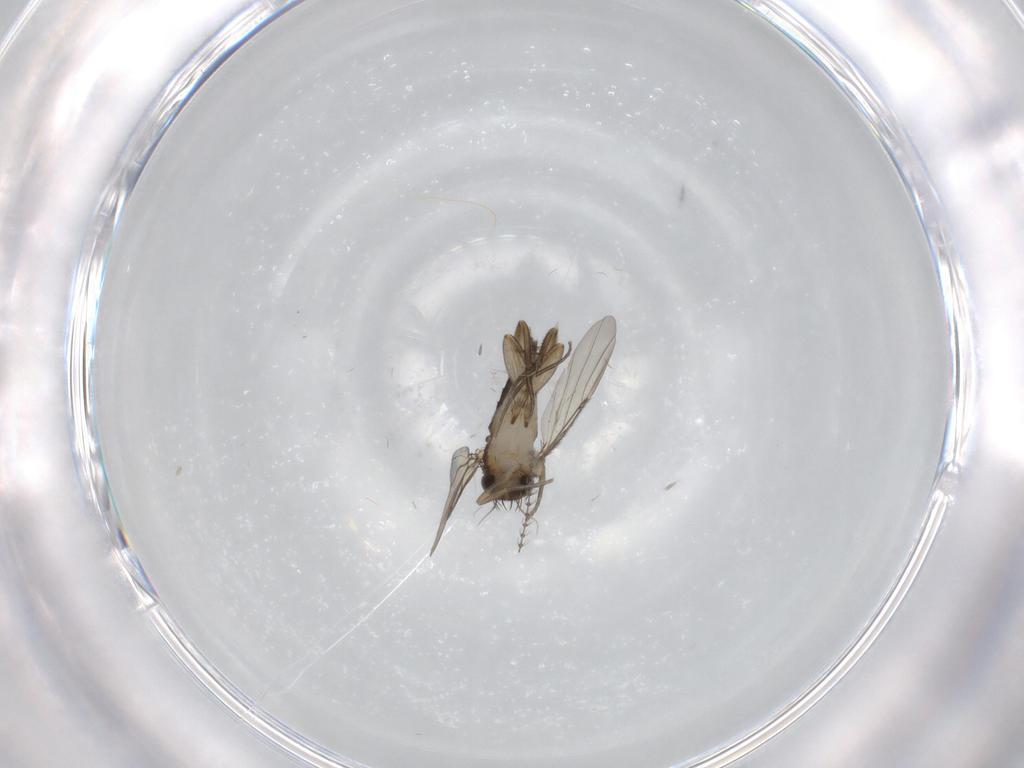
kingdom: Animalia
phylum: Arthropoda
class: Insecta
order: Diptera
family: Phoridae
